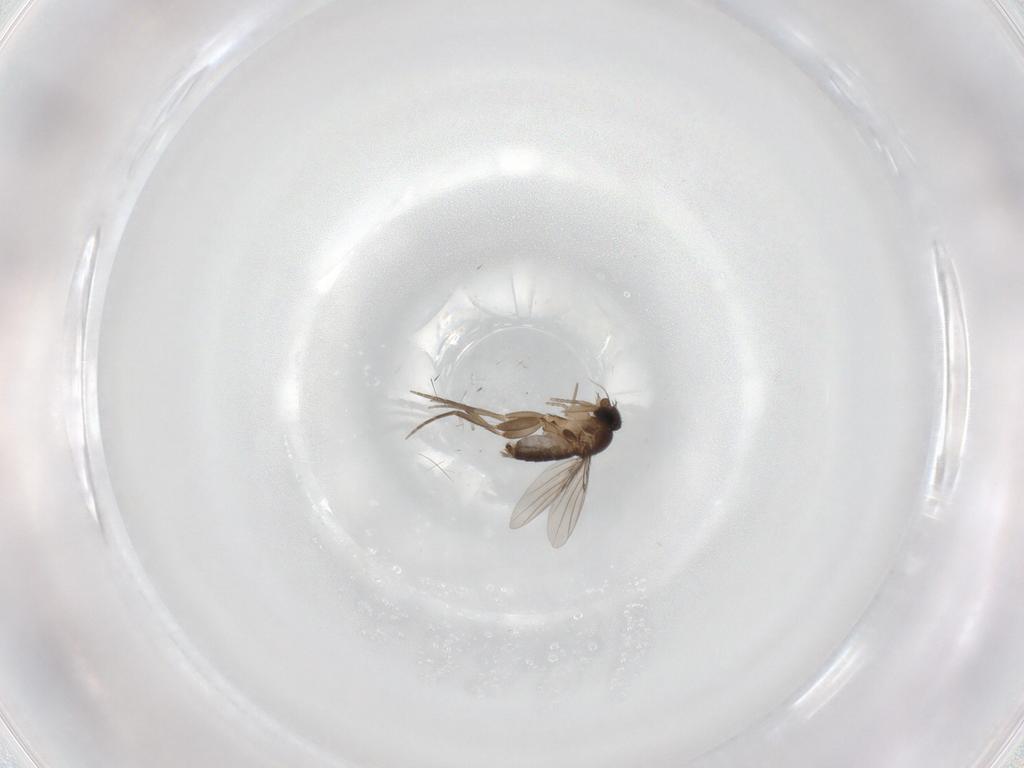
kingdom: Animalia
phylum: Arthropoda
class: Insecta
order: Diptera
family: Phoridae
